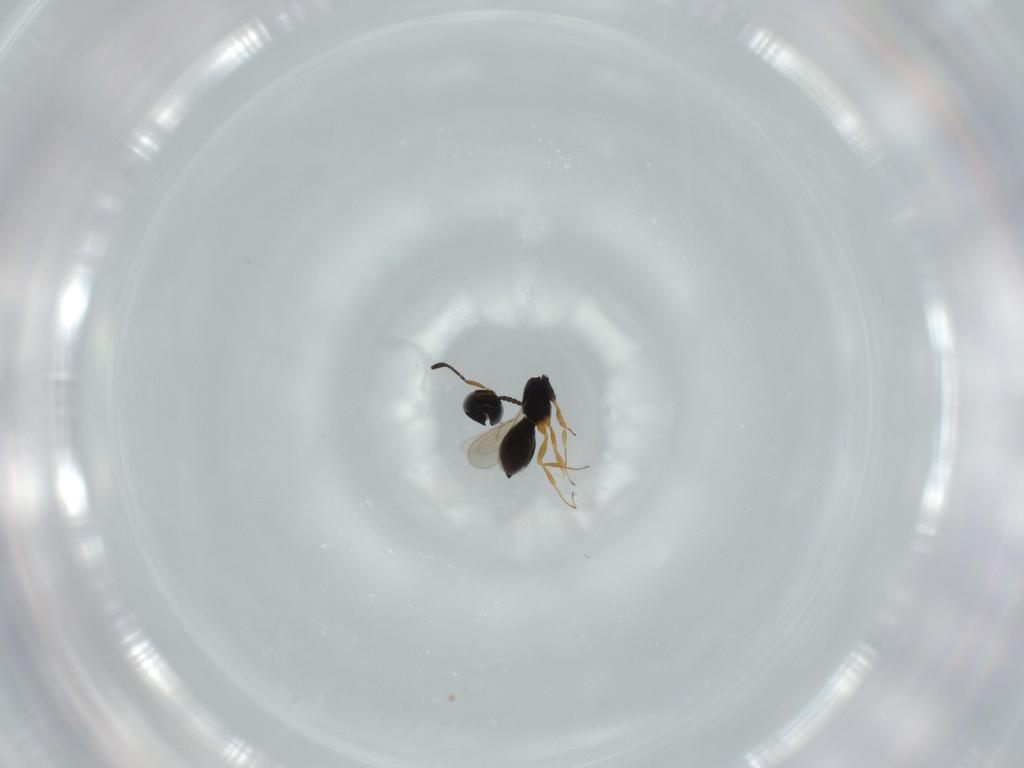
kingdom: Animalia
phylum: Arthropoda
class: Insecta
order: Hymenoptera
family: Scelionidae
